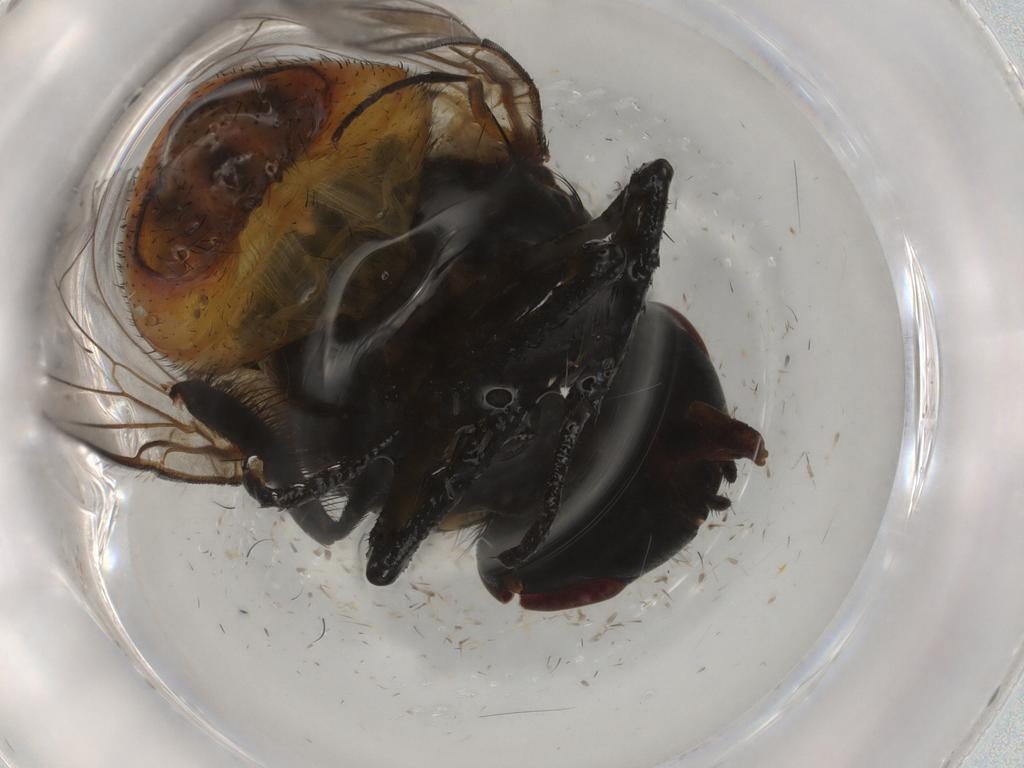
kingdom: Animalia
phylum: Arthropoda
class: Insecta
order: Diptera
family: Muscidae
